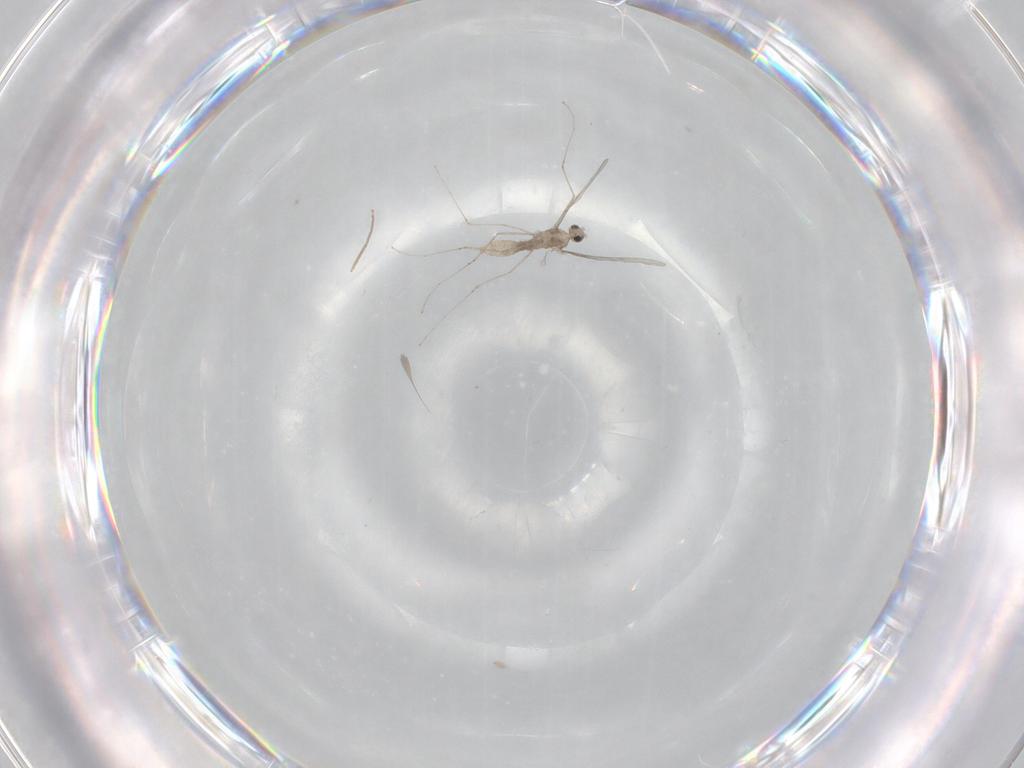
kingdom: Animalia
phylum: Arthropoda
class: Insecta
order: Diptera
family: Chironomidae
